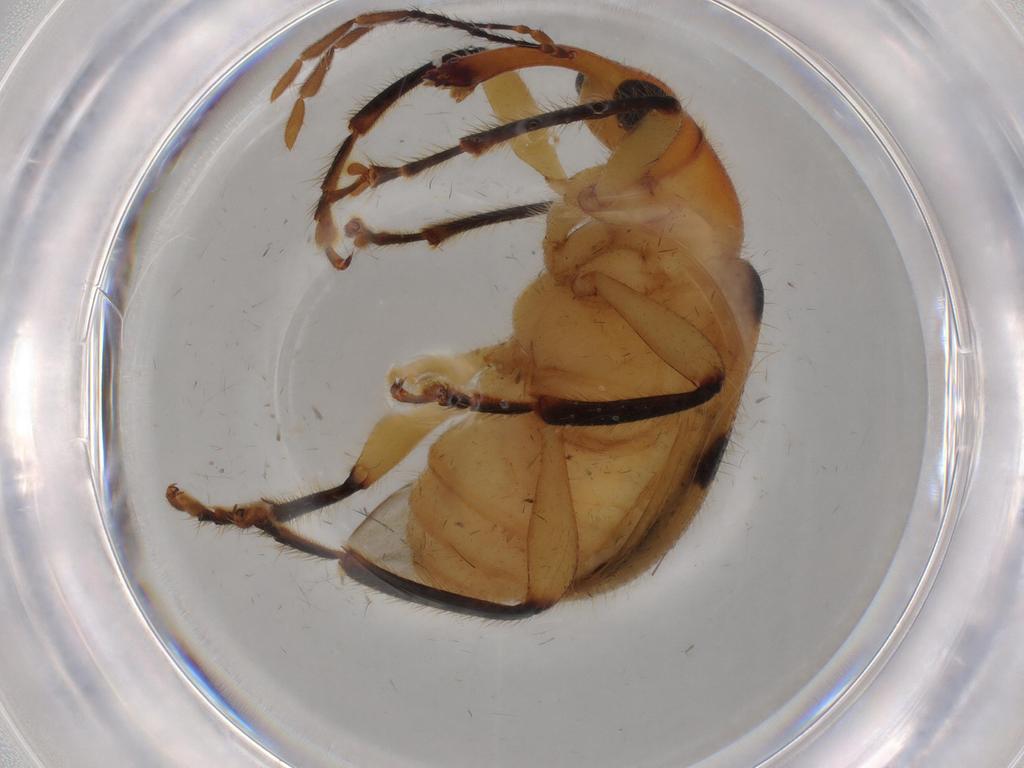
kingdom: Animalia
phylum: Arthropoda
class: Insecta
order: Coleoptera
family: Attelabidae
